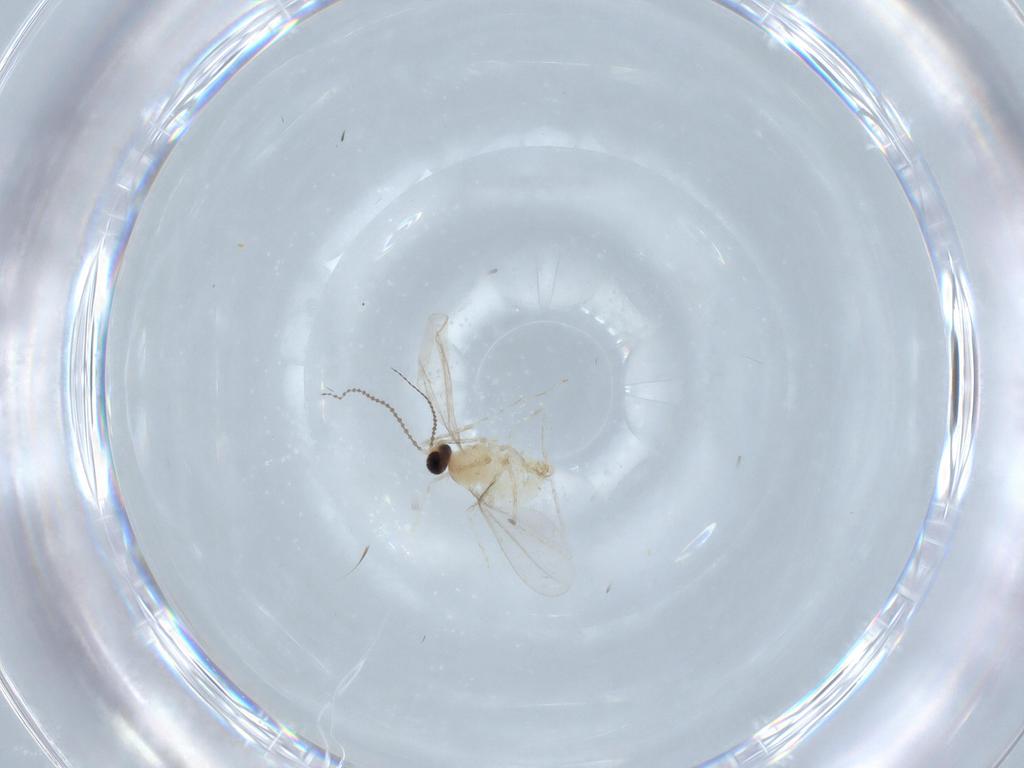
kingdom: Animalia
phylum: Arthropoda
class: Insecta
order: Diptera
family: Cecidomyiidae
